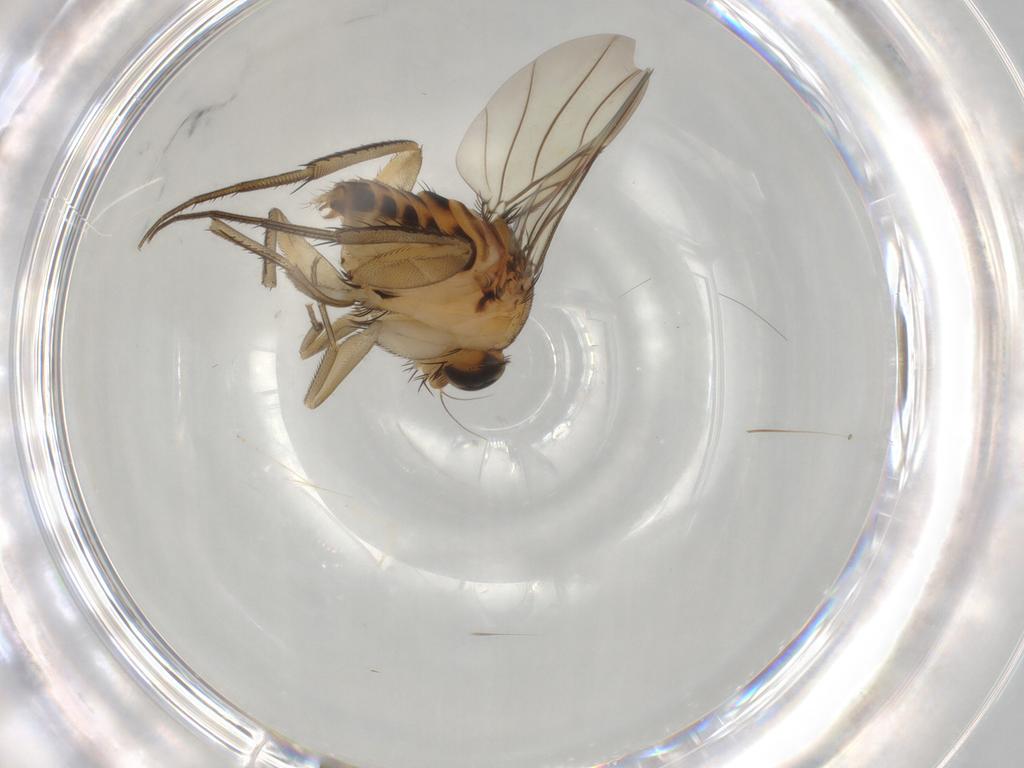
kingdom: Animalia
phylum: Arthropoda
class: Insecta
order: Diptera
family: Phoridae
